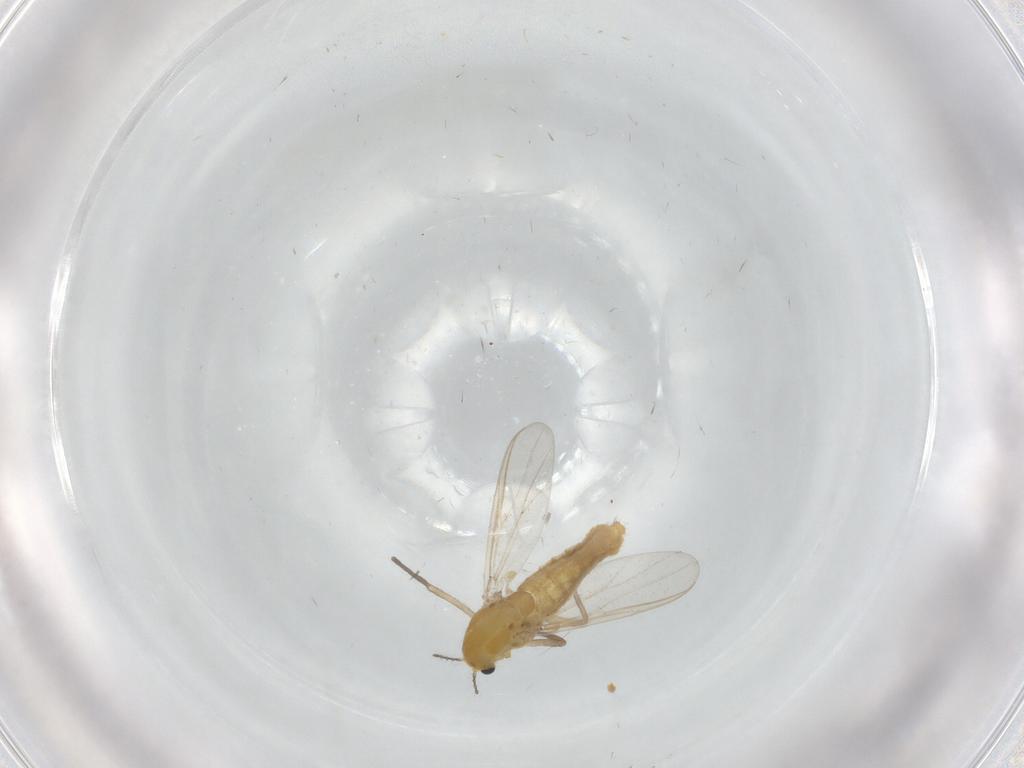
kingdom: Animalia
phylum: Arthropoda
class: Insecta
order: Diptera
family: Chironomidae
